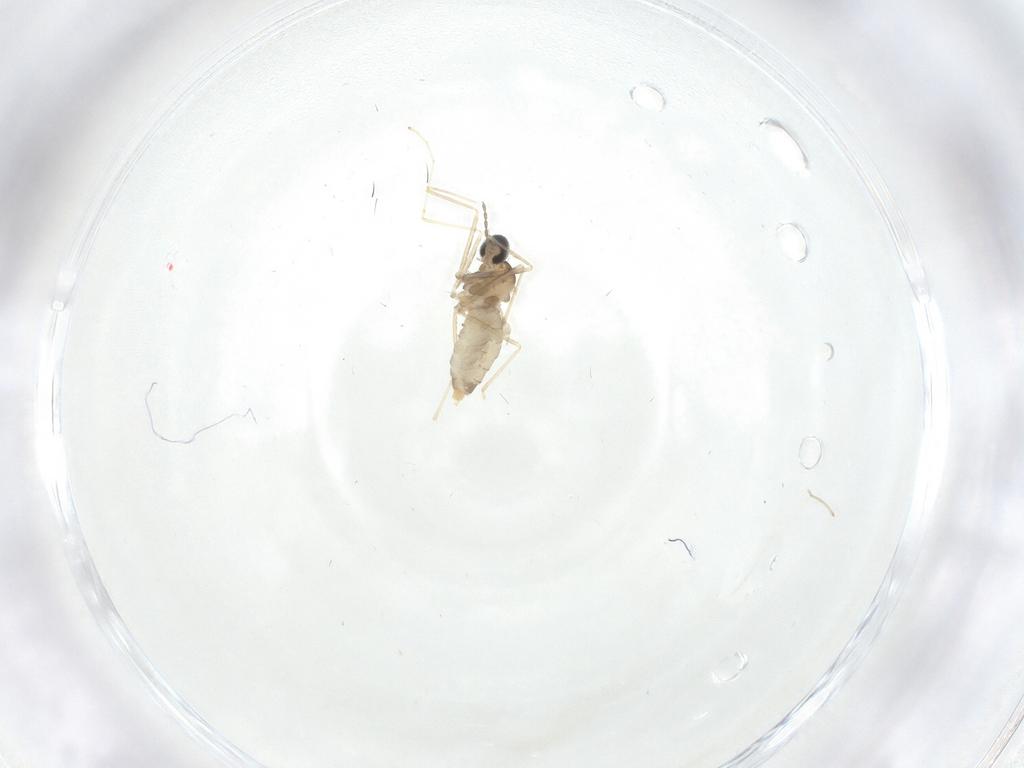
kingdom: Animalia
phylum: Arthropoda
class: Insecta
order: Diptera
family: Cecidomyiidae
